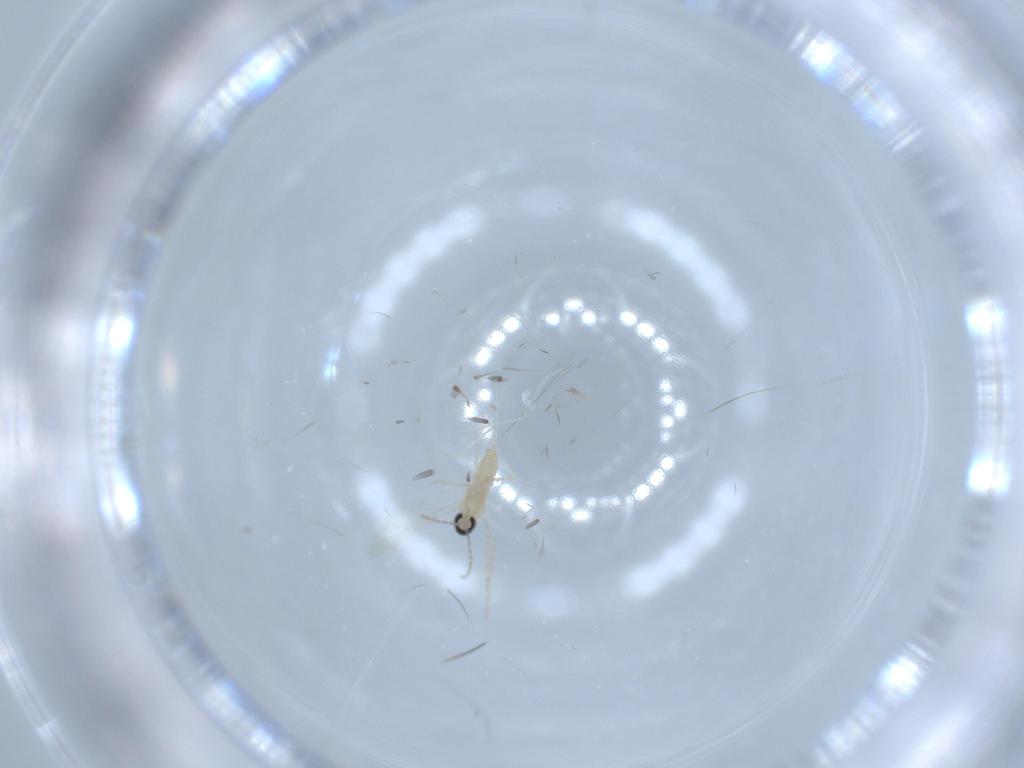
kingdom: Animalia
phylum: Arthropoda
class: Insecta
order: Diptera
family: Cecidomyiidae
